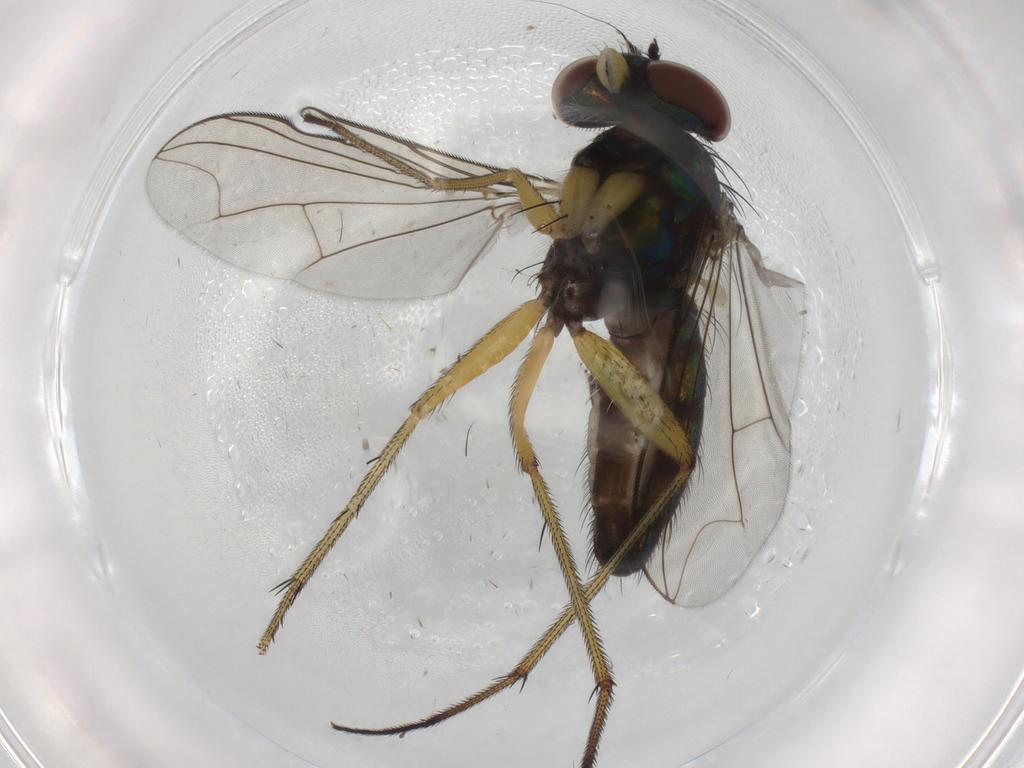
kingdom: Animalia
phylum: Arthropoda
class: Insecta
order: Diptera
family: Dolichopodidae
